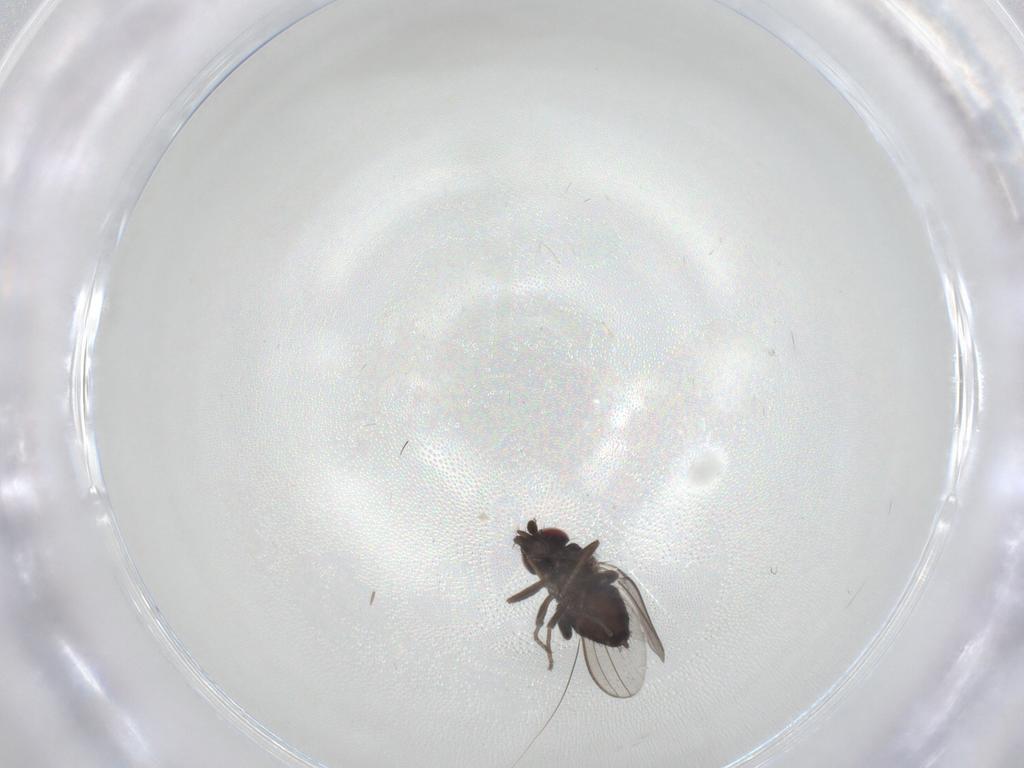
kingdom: Animalia
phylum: Arthropoda
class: Insecta
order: Diptera
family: Milichiidae
